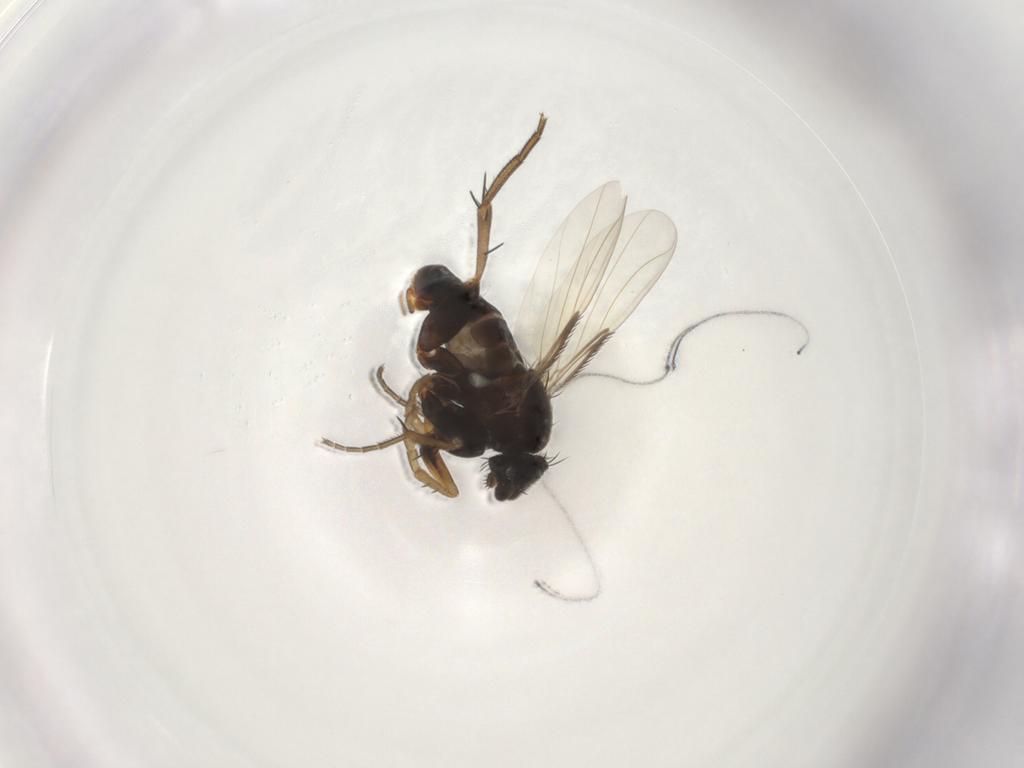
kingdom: Animalia
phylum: Arthropoda
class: Insecta
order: Diptera
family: Phoridae
